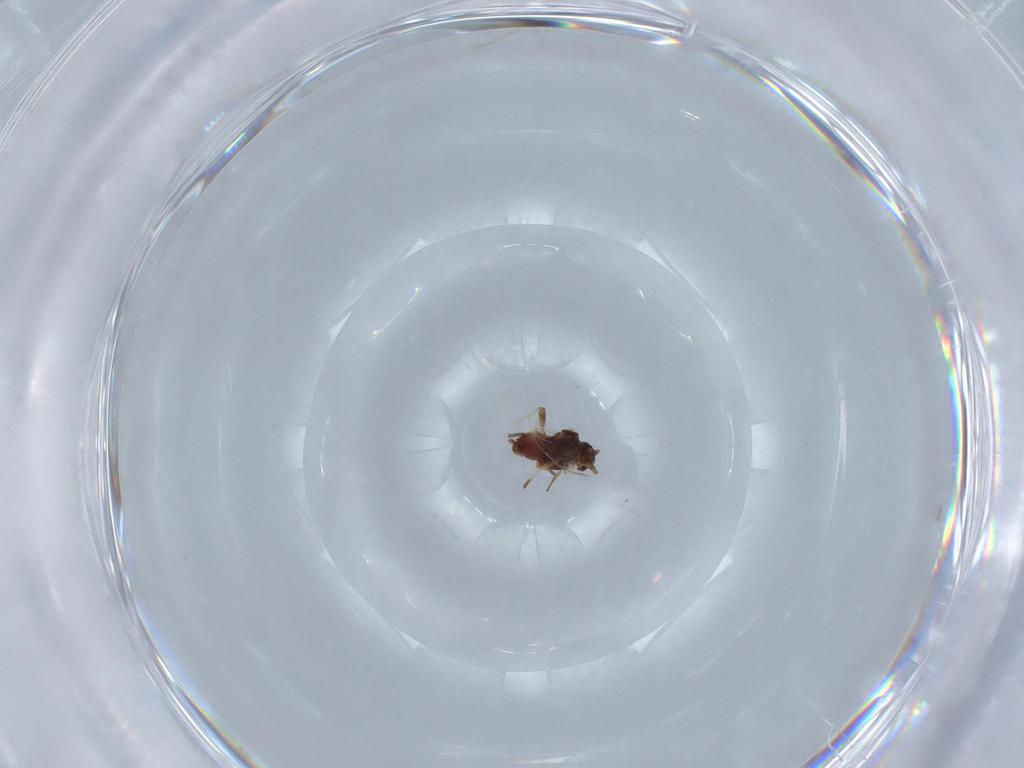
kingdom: Animalia
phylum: Arthropoda
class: Insecta
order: Hemiptera
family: Aphididae
